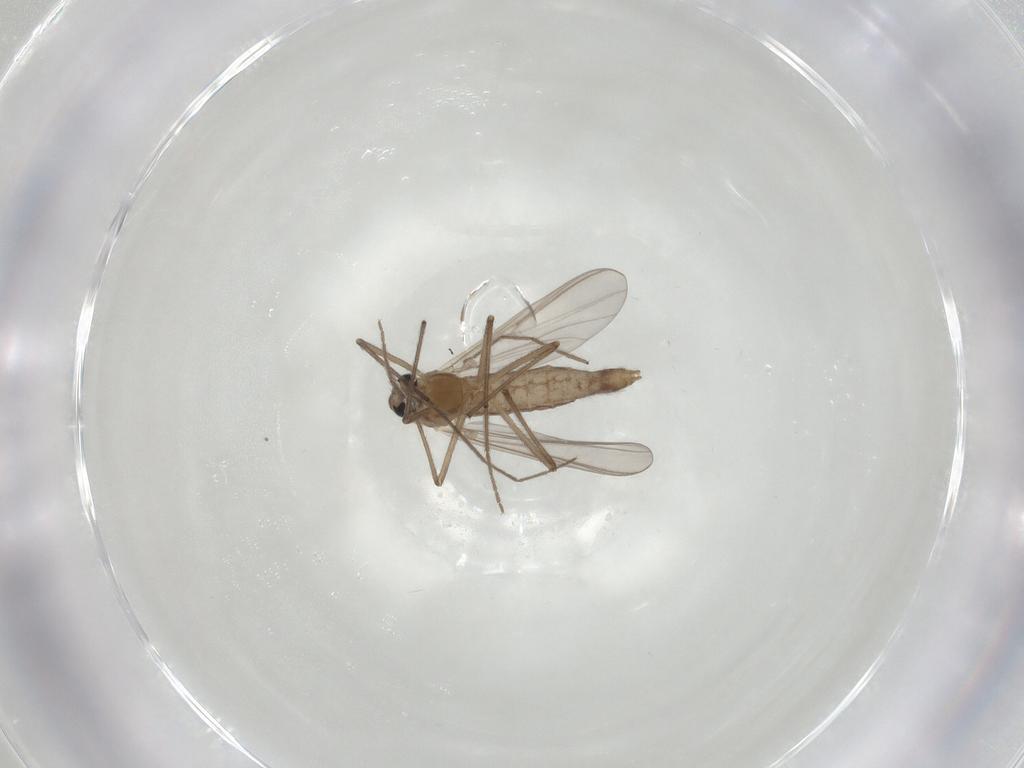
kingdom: Animalia
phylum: Arthropoda
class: Insecta
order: Diptera
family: Chironomidae
